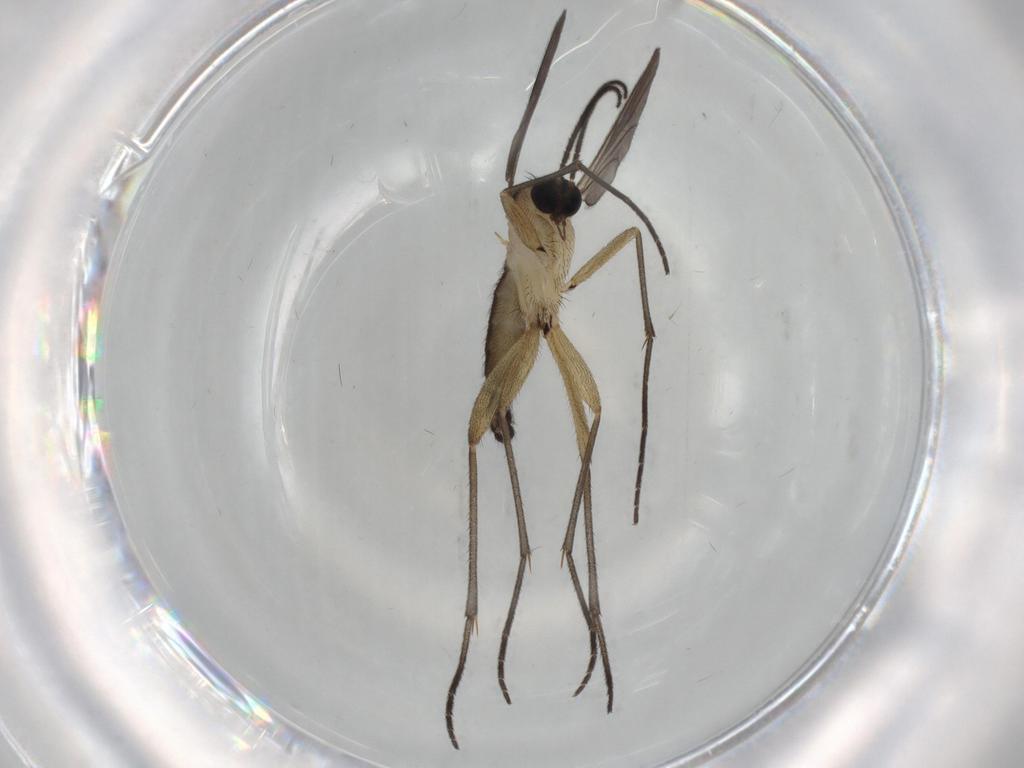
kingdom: Animalia
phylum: Arthropoda
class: Insecta
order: Diptera
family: Sciaridae
